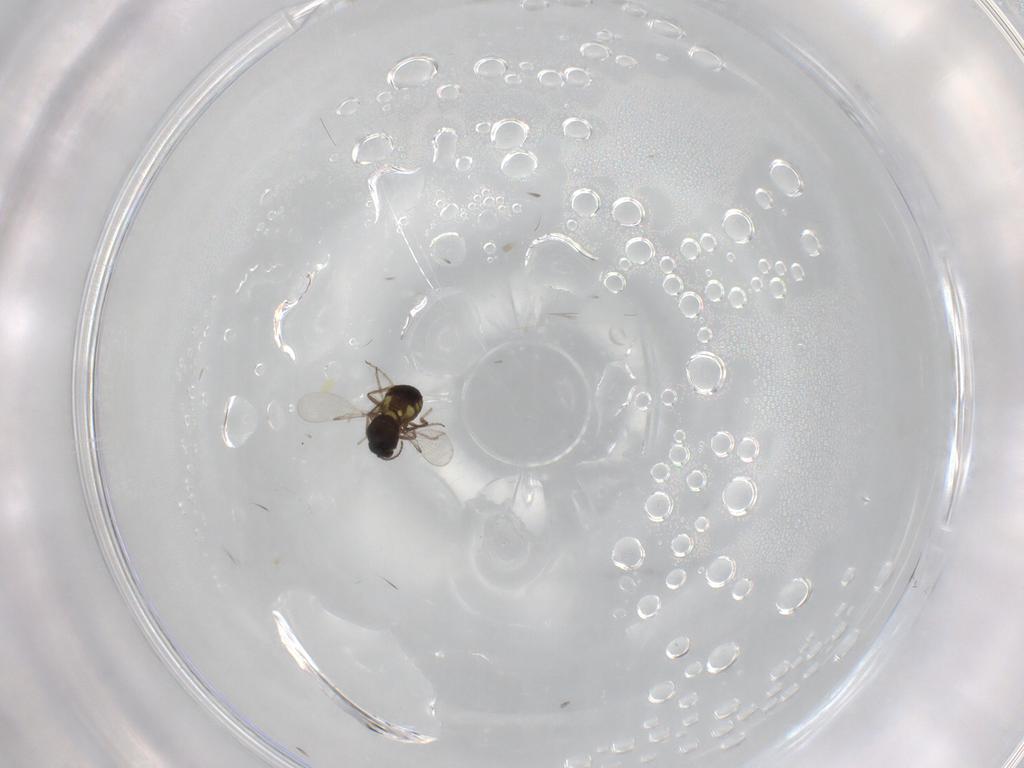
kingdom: Animalia
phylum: Arthropoda
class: Insecta
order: Diptera
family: Ceratopogonidae
